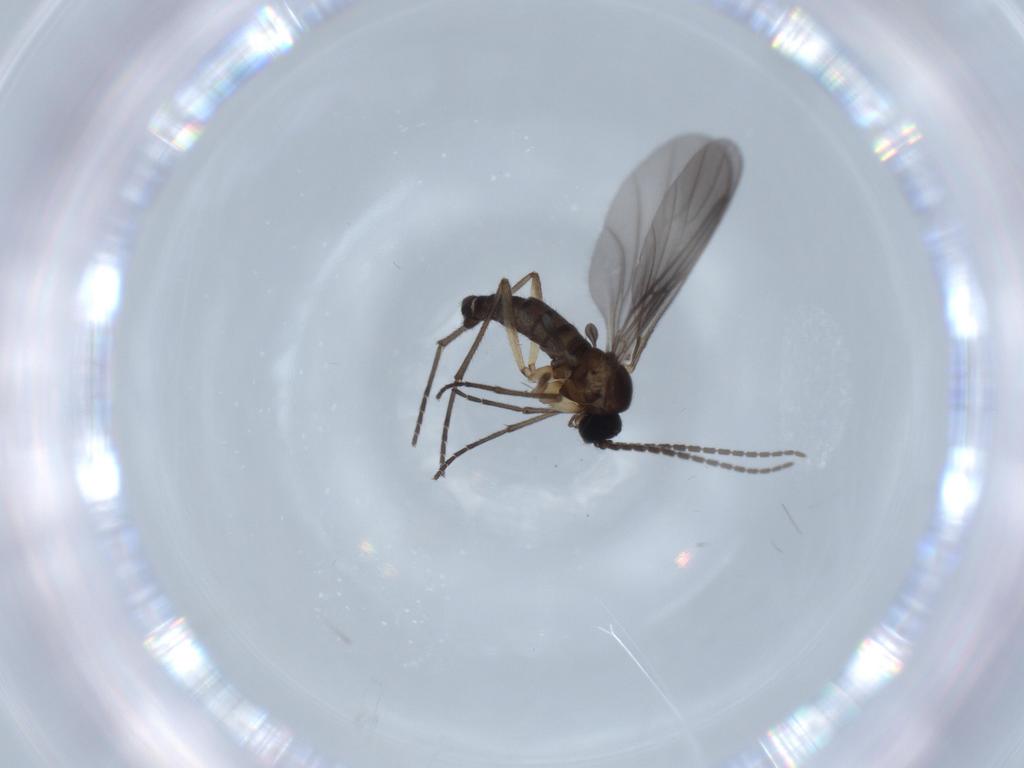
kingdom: Animalia
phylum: Arthropoda
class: Insecta
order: Diptera
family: Sciaridae
